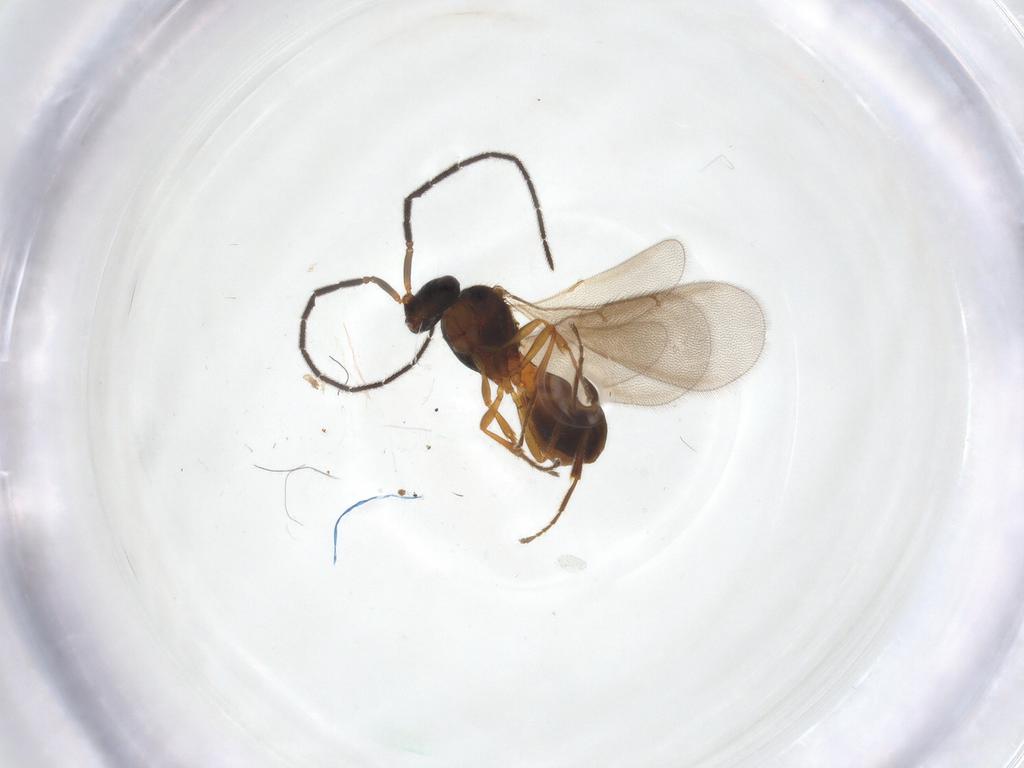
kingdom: Animalia
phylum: Arthropoda
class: Insecta
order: Hymenoptera
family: Scelionidae
